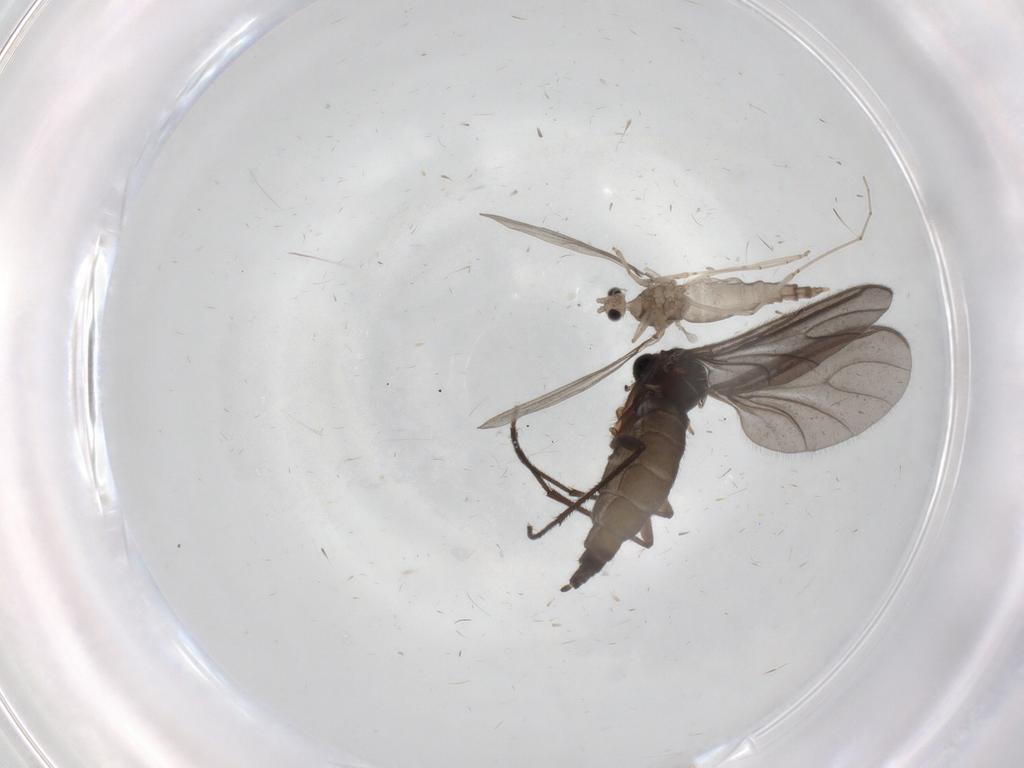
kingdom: Animalia
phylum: Arthropoda
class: Insecta
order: Diptera
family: Sciaridae
